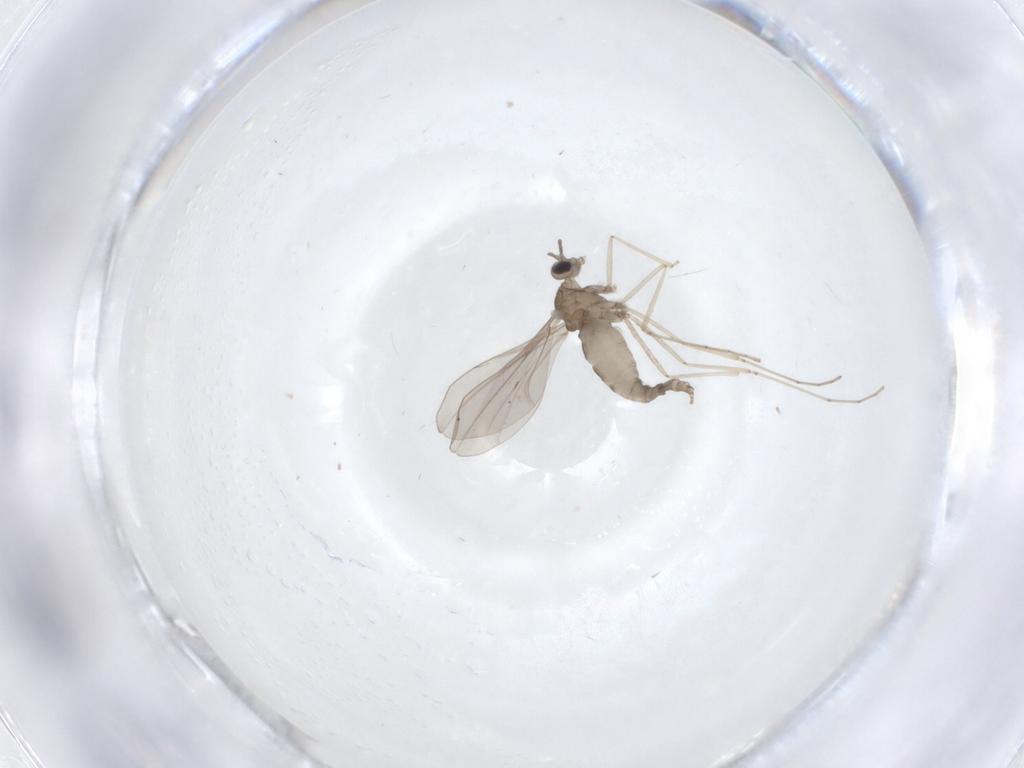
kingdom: Animalia
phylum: Arthropoda
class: Insecta
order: Diptera
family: Cecidomyiidae
